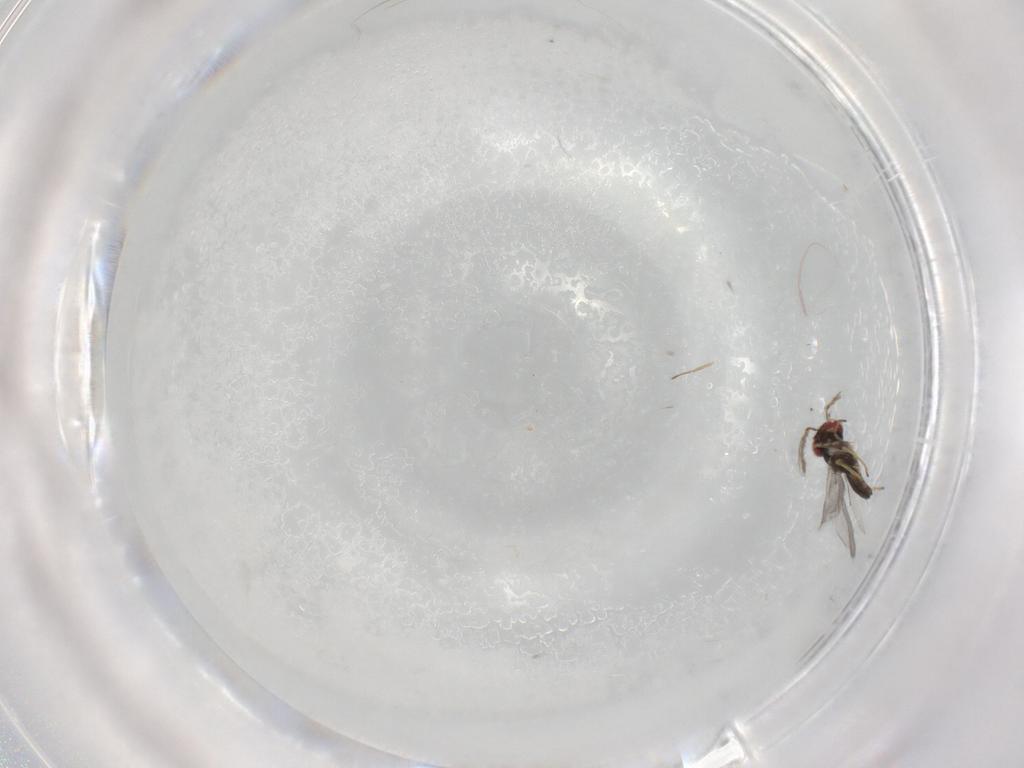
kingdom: Animalia
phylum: Arthropoda
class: Insecta
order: Hymenoptera
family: Eulophidae
